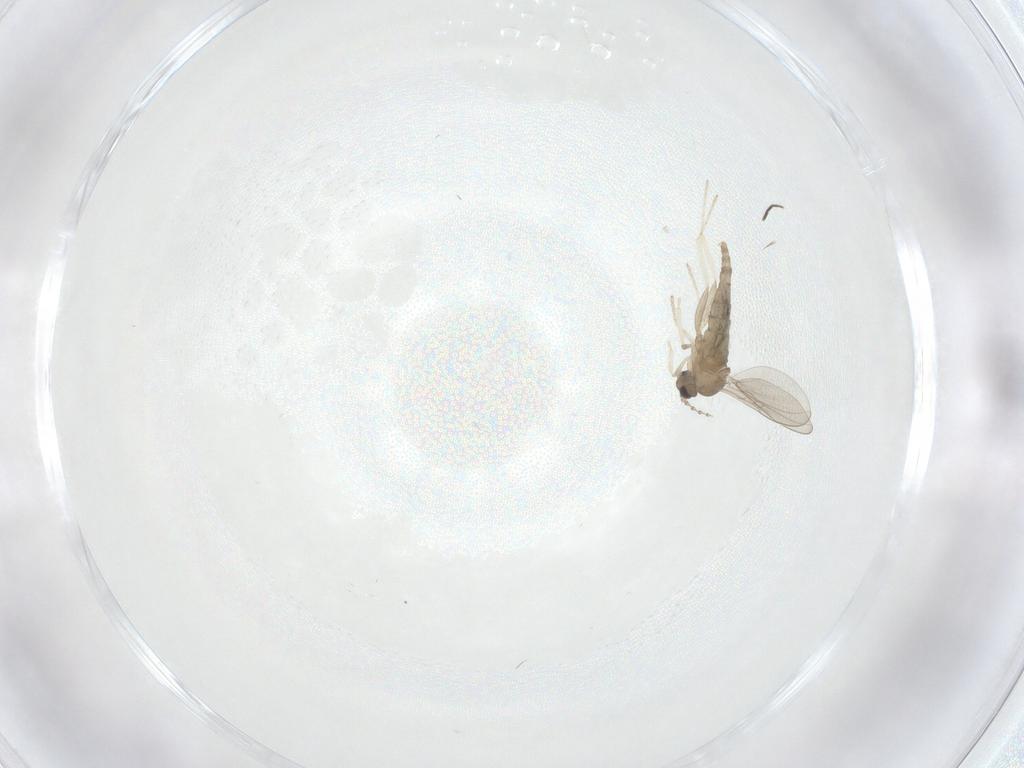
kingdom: Animalia
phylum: Arthropoda
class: Insecta
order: Diptera
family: Cecidomyiidae
